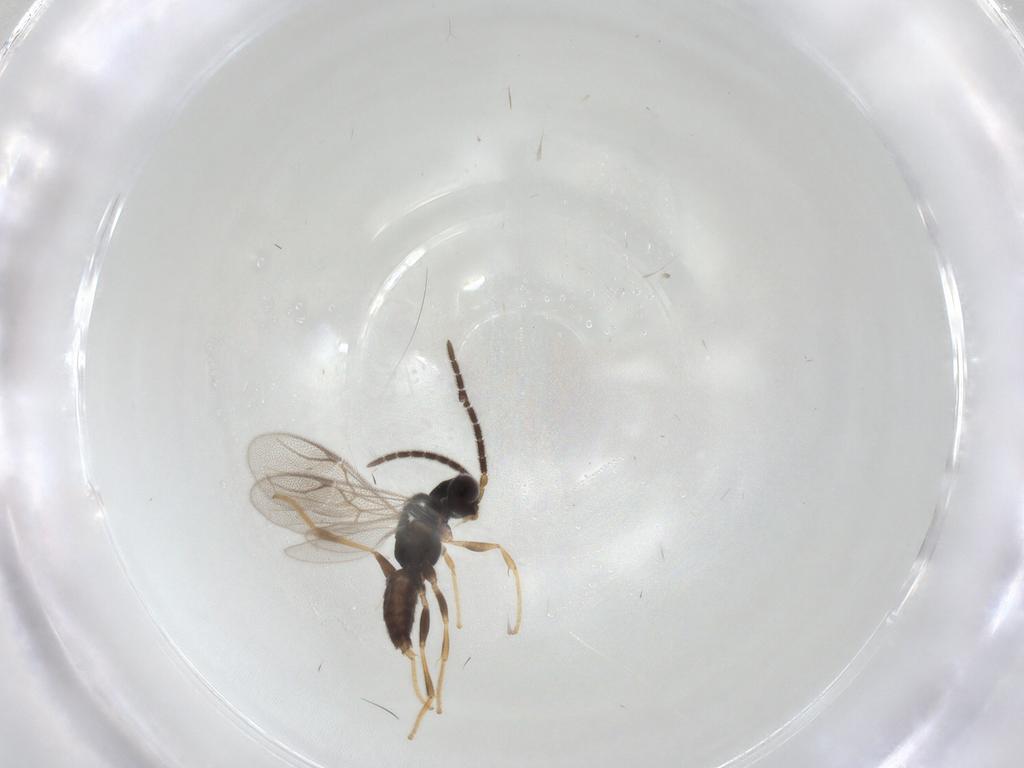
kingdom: Animalia
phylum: Arthropoda
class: Insecta
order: Hymenoptera
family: Dryinidae
